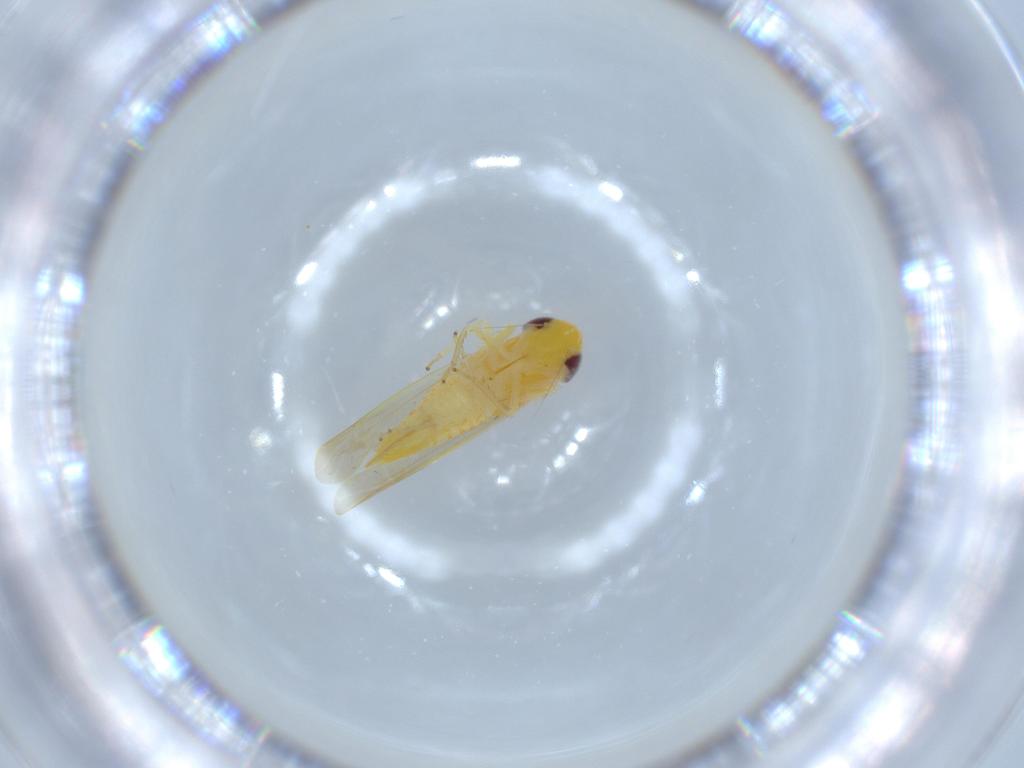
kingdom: Animalia
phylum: Arthropoda
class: Insecta
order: Hemiptera
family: Cicadellidae
